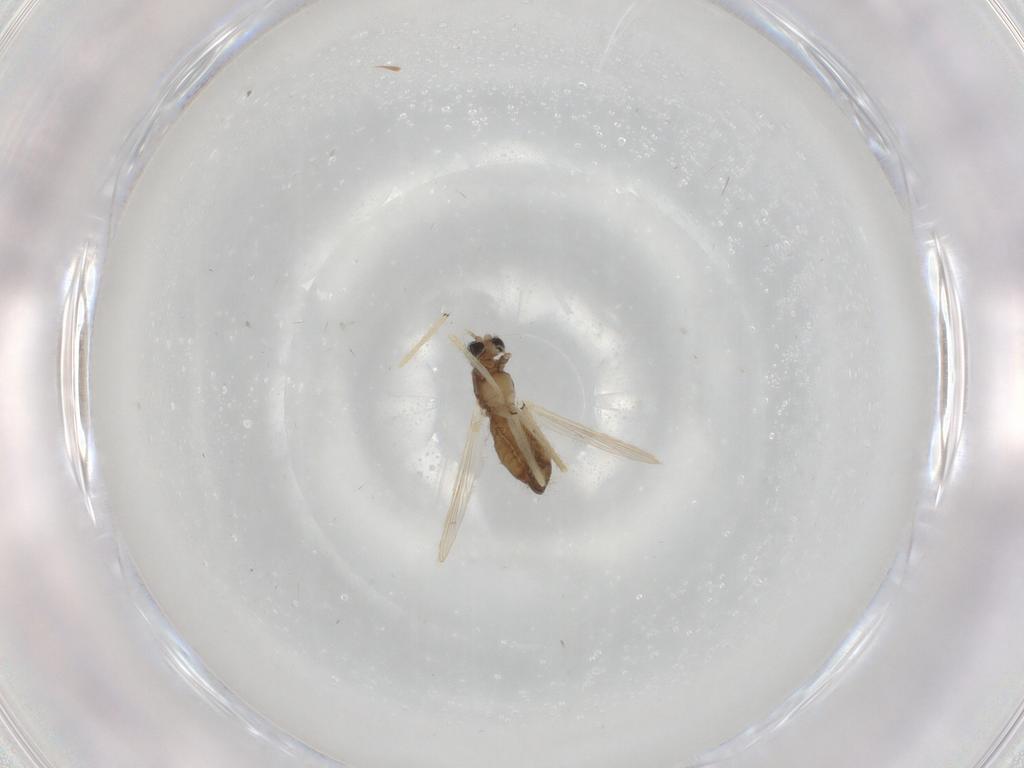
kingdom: Animalia
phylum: Arthropoda
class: Insecta
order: Diptera
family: Chironomidae
